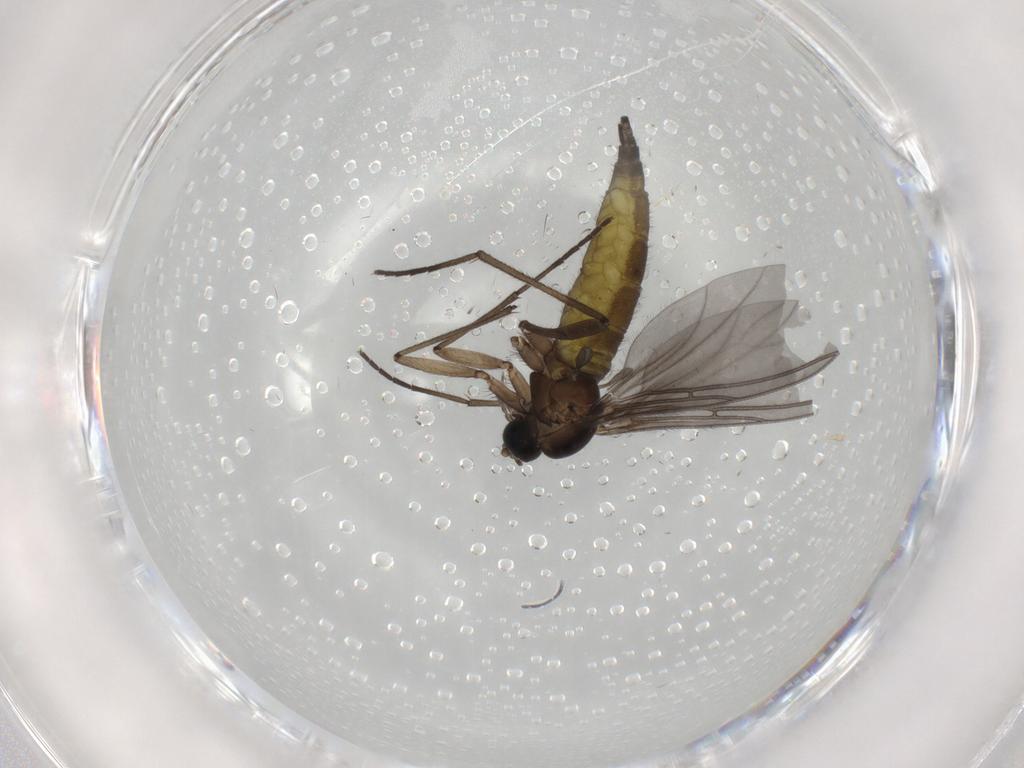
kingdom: Animalia
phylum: Arthropoda
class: Insecta
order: Diptera
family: Sciaridae
